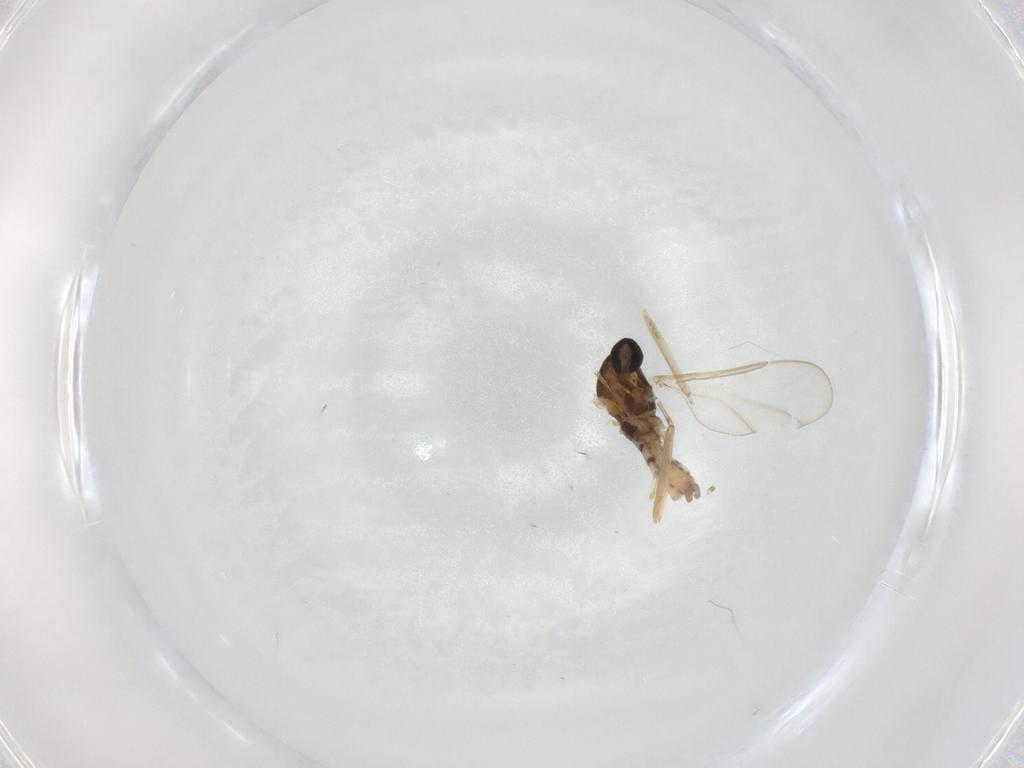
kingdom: Animalia
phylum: Arthropoda
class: Insecta
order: Diptera
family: Cecidomyiidae
